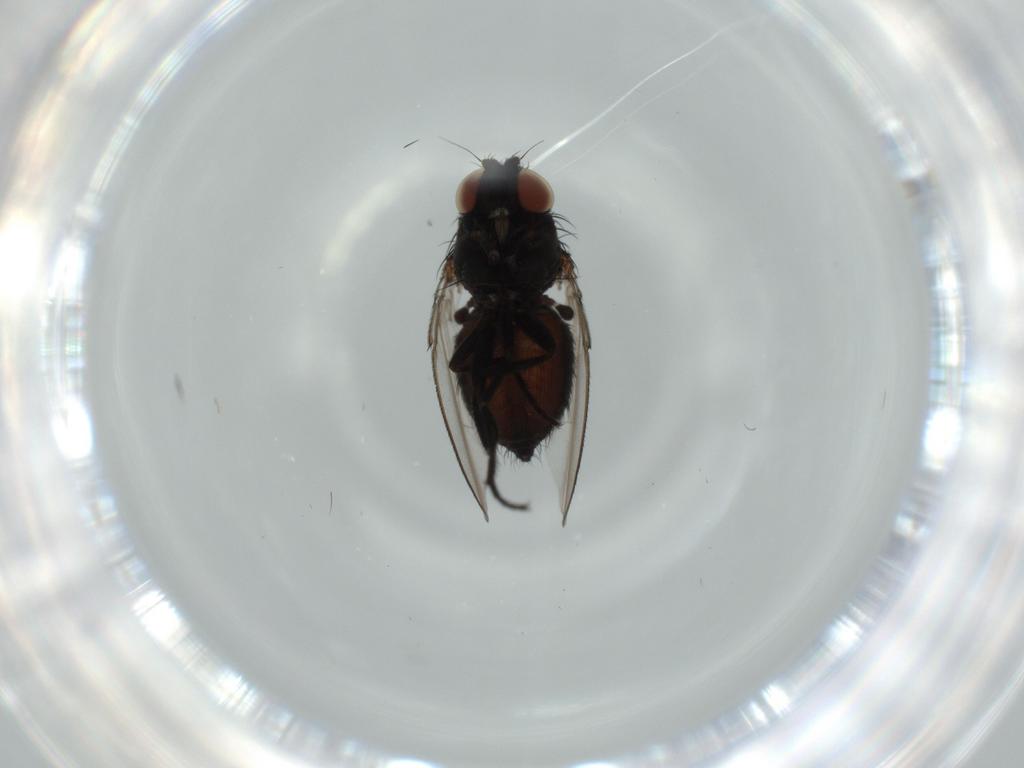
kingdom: Animalia
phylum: Arthropoda
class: Insecta
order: Diptera
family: Milichiidae
